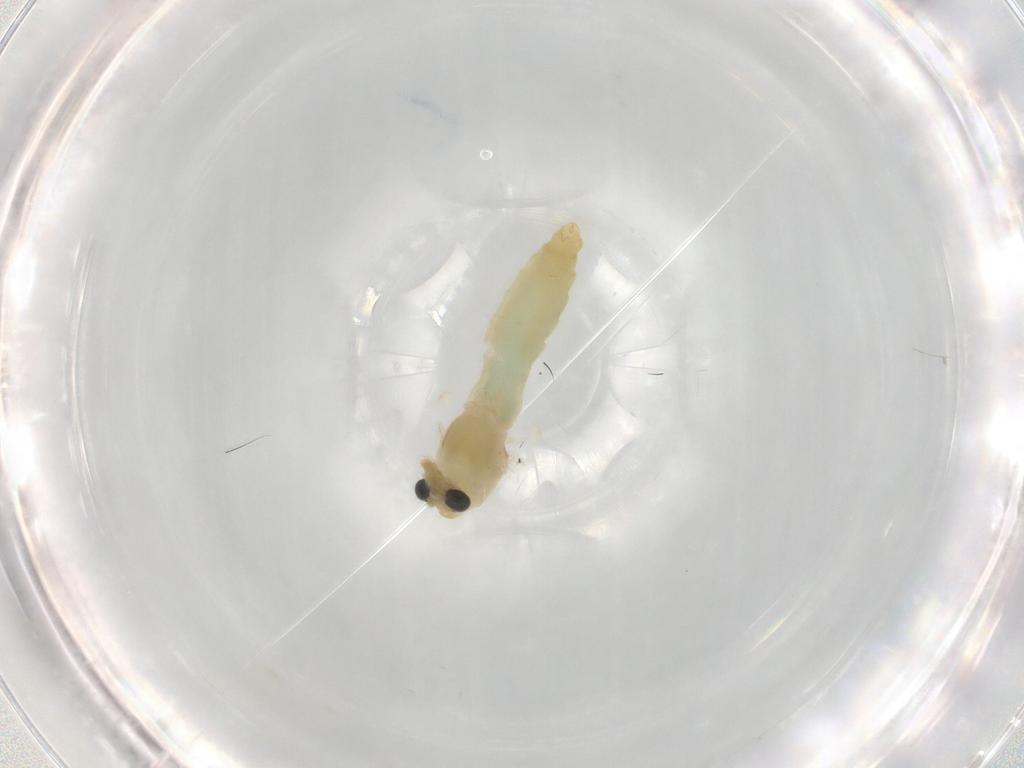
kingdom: Animalia
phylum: Arthropoda
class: Insecta
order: Diptera
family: Chironomidae
